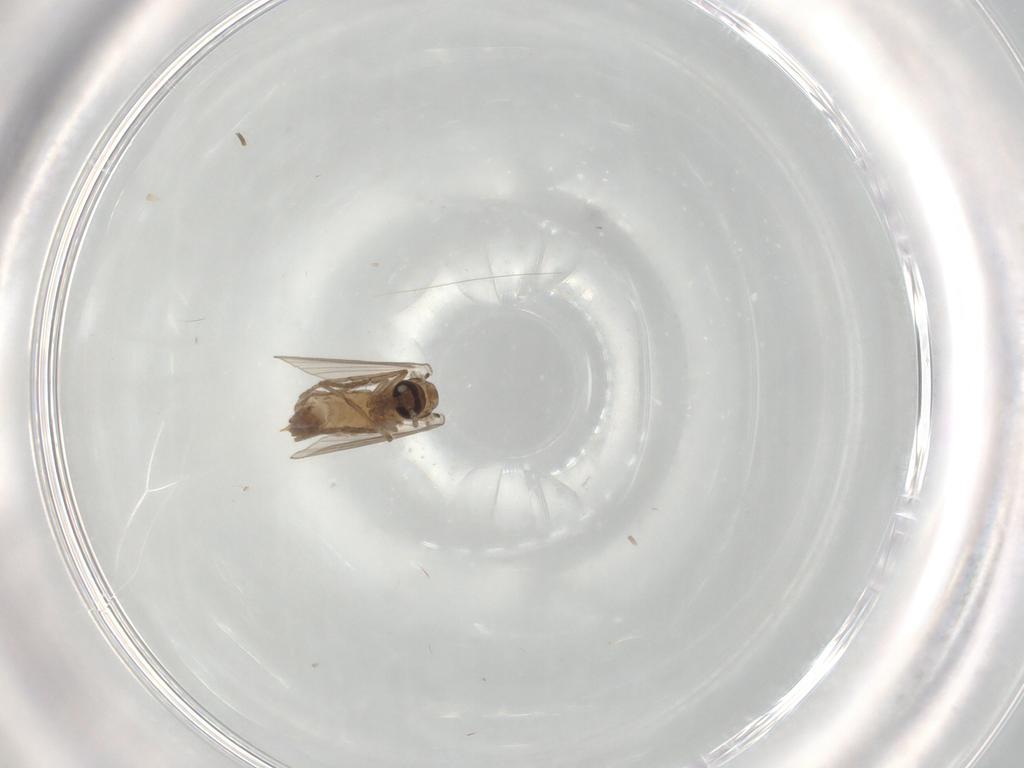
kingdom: Animalia
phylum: Arthropoda
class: Insecta
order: Diptera
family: Psychodidae
